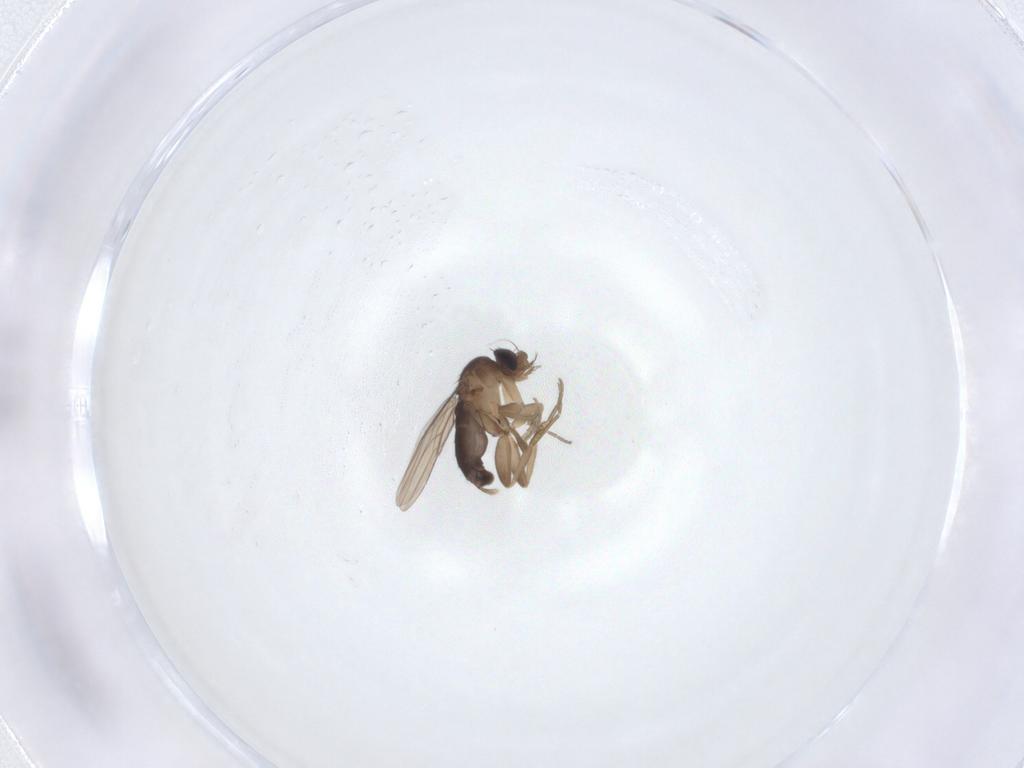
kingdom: Animalia
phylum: Arthropoda
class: Insecta
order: Diptera
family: Phoridae
